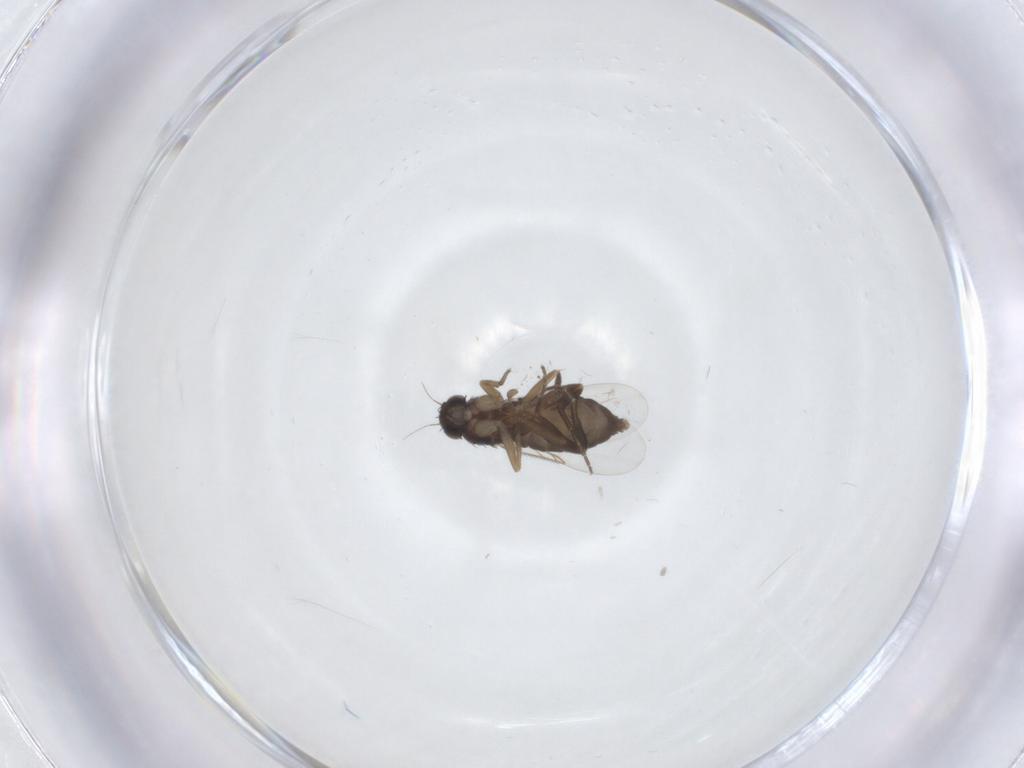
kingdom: Animalia
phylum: Arthropoda
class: Insecta
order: Diptera
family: Phoridae
